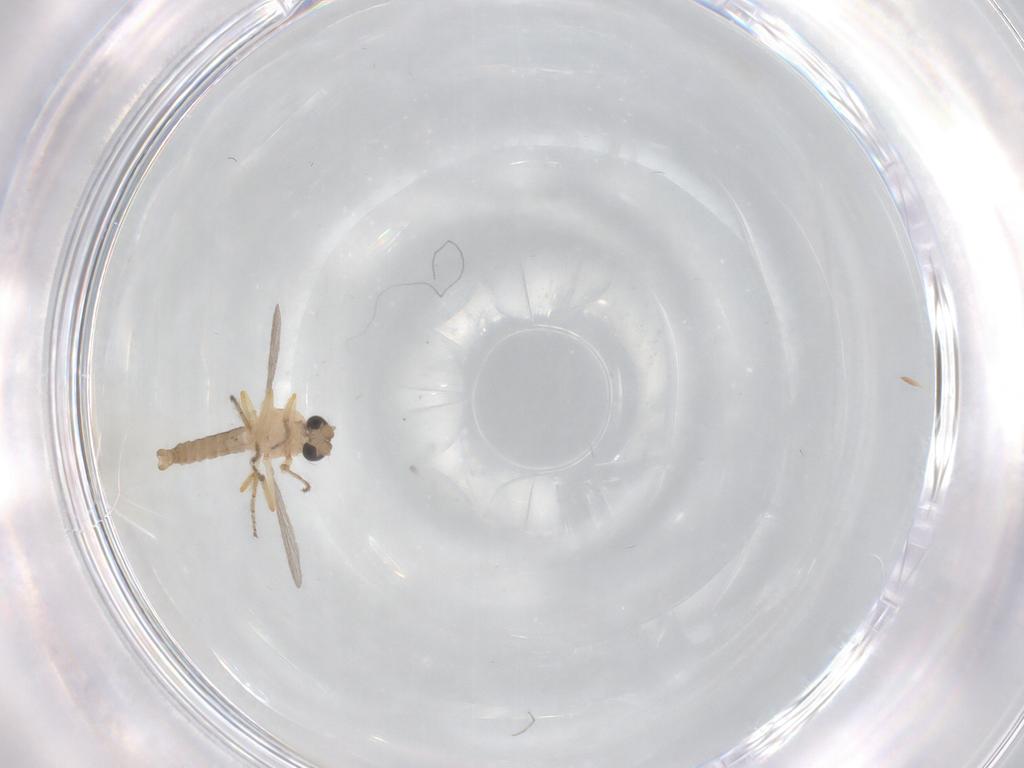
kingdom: Animalia
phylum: Arthropoda
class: Insecta
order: Diptera
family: Ceratopogonidae
